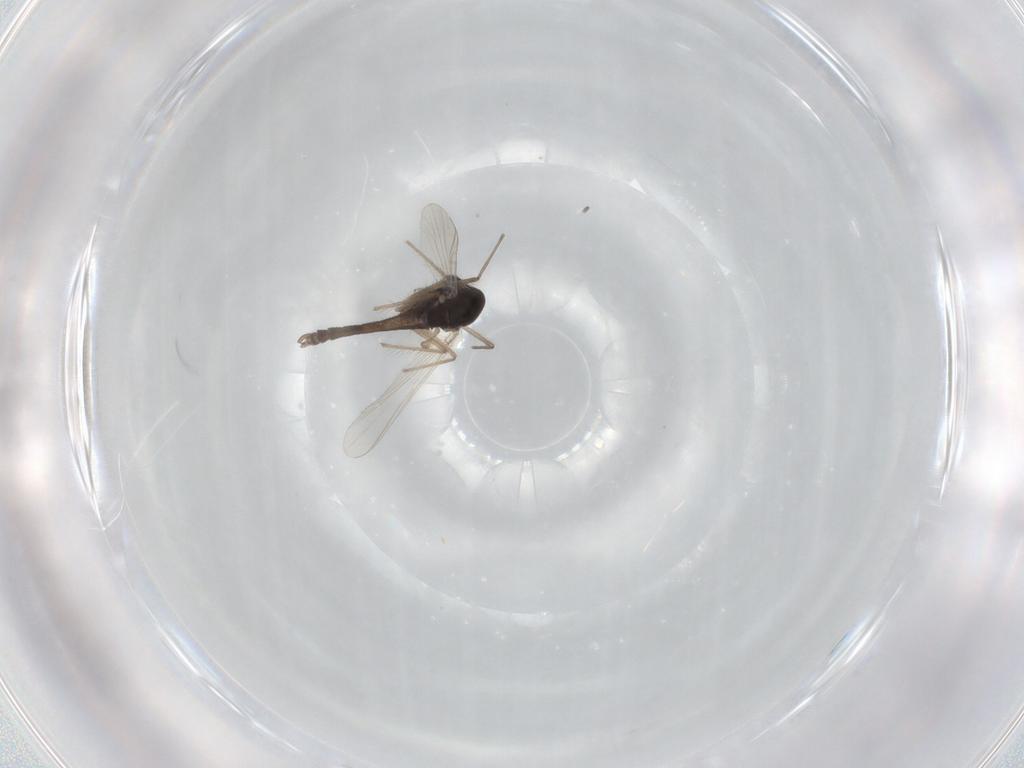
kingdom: Animalia
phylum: Arthropoda
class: Insecta
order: Diptera
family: Chironomidae
